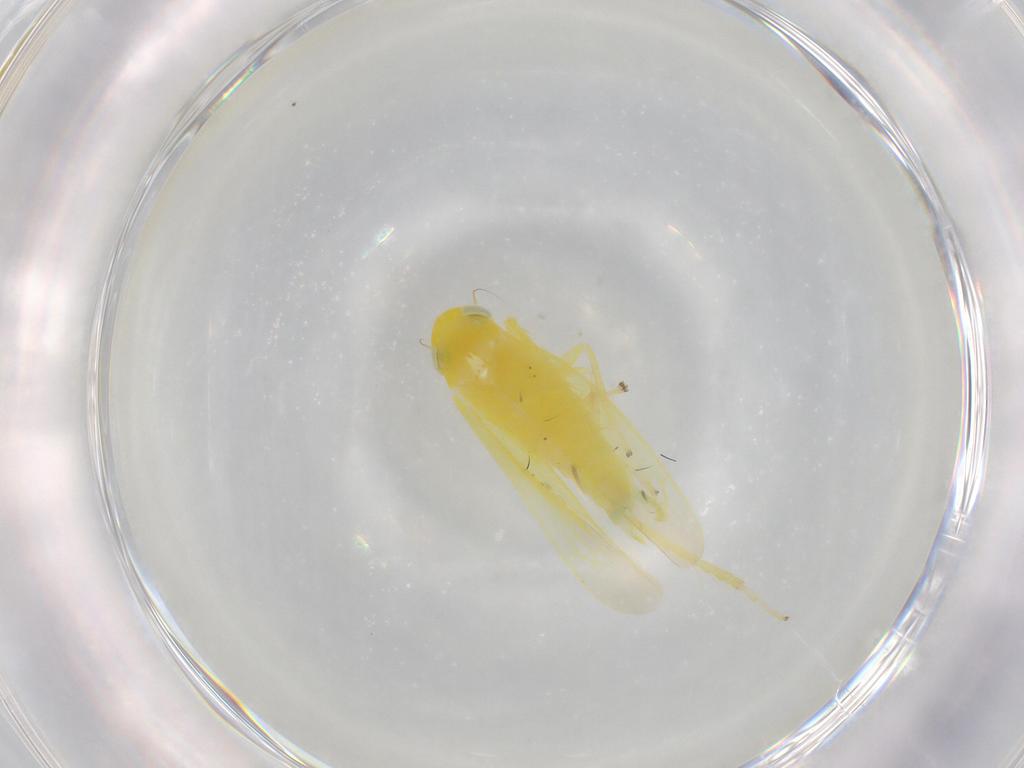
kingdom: Animalia
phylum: Arthropoda
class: Insecta
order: Hemiptera
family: Cicadellidae
